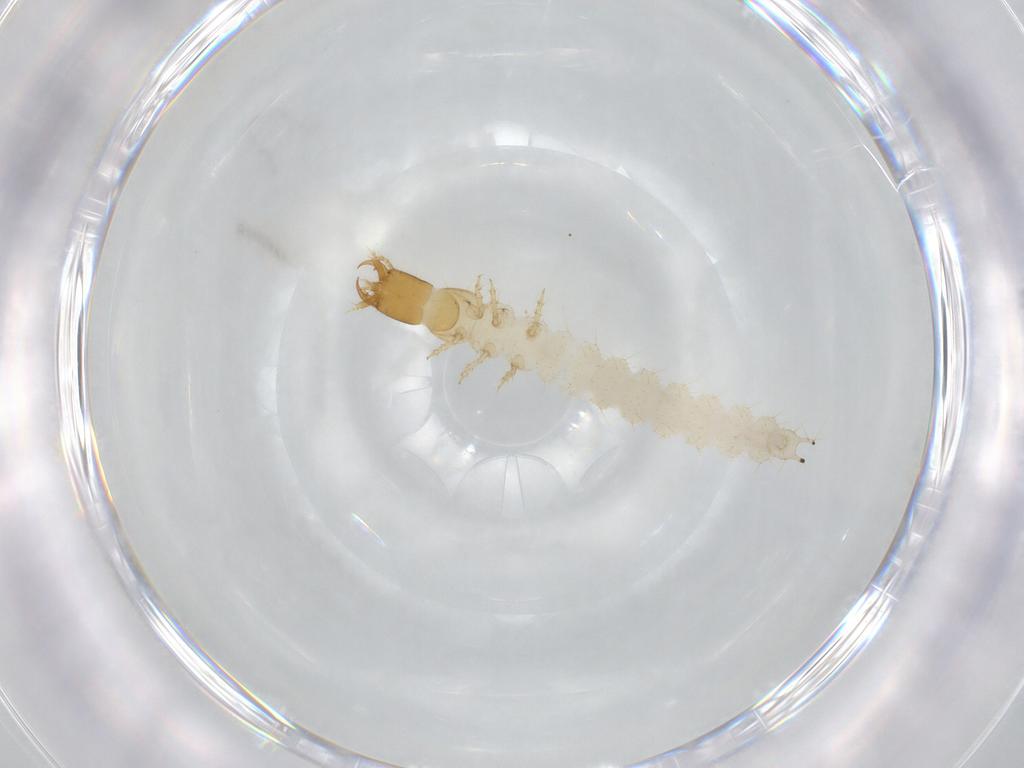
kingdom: Animalia
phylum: Arthropoda
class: Insecta
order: Coleoptera
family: Carabidae
